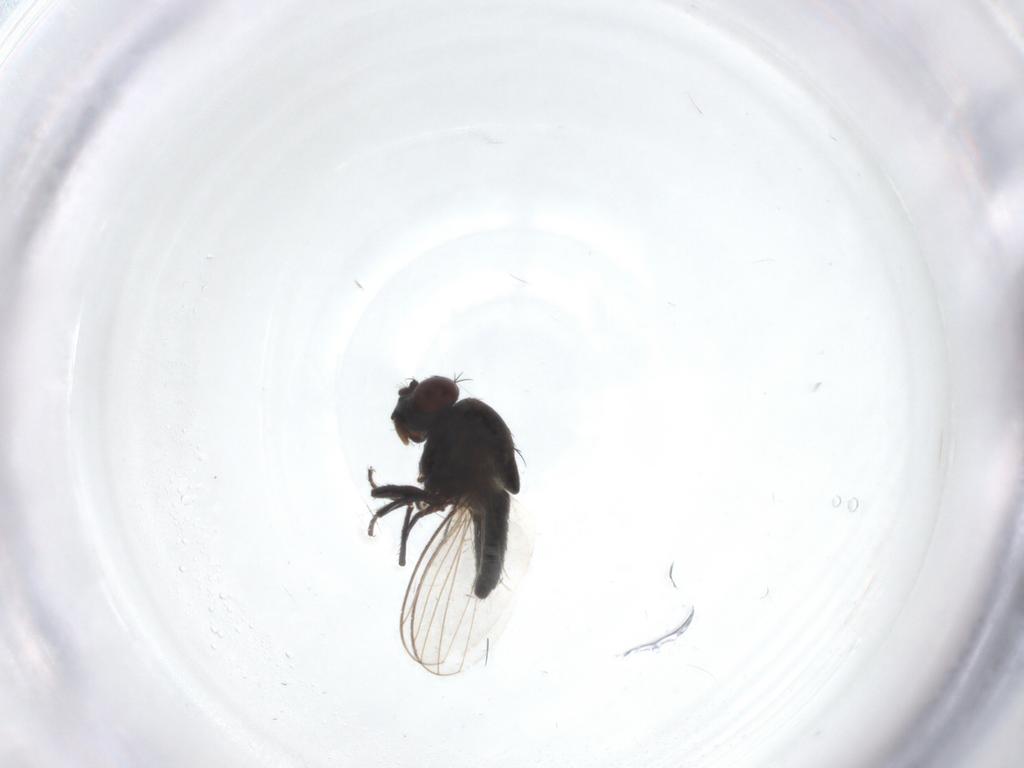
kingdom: Animalia
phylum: Arthropoda
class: Insecta
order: Diptera
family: Ephydridae
